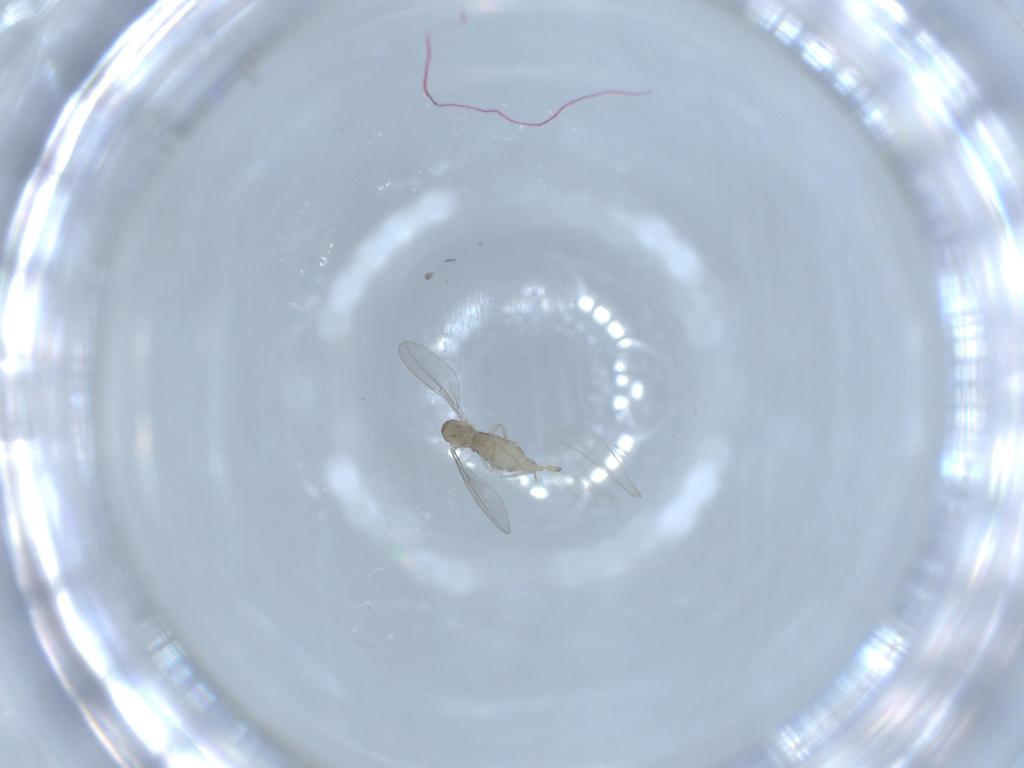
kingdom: Animalia
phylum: Arthropoda
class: Insecta
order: Diptera
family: Cecidomyiidae
